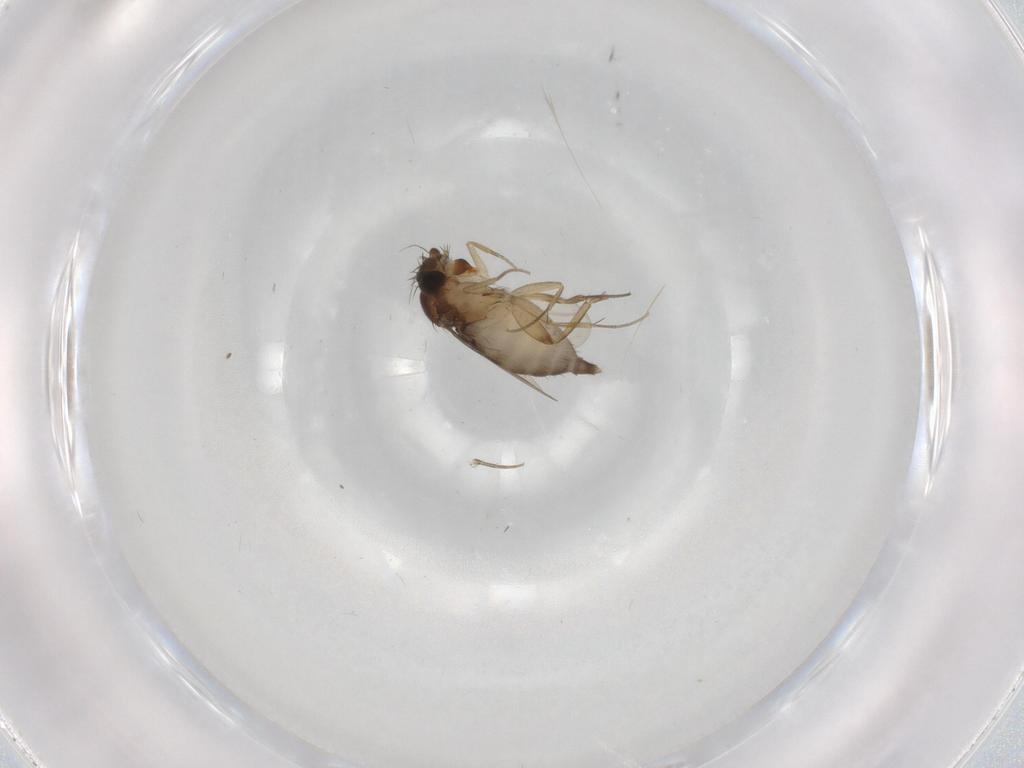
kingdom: Animalia
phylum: Arthropoda
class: Insecta
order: Diptera
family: Phoridae
